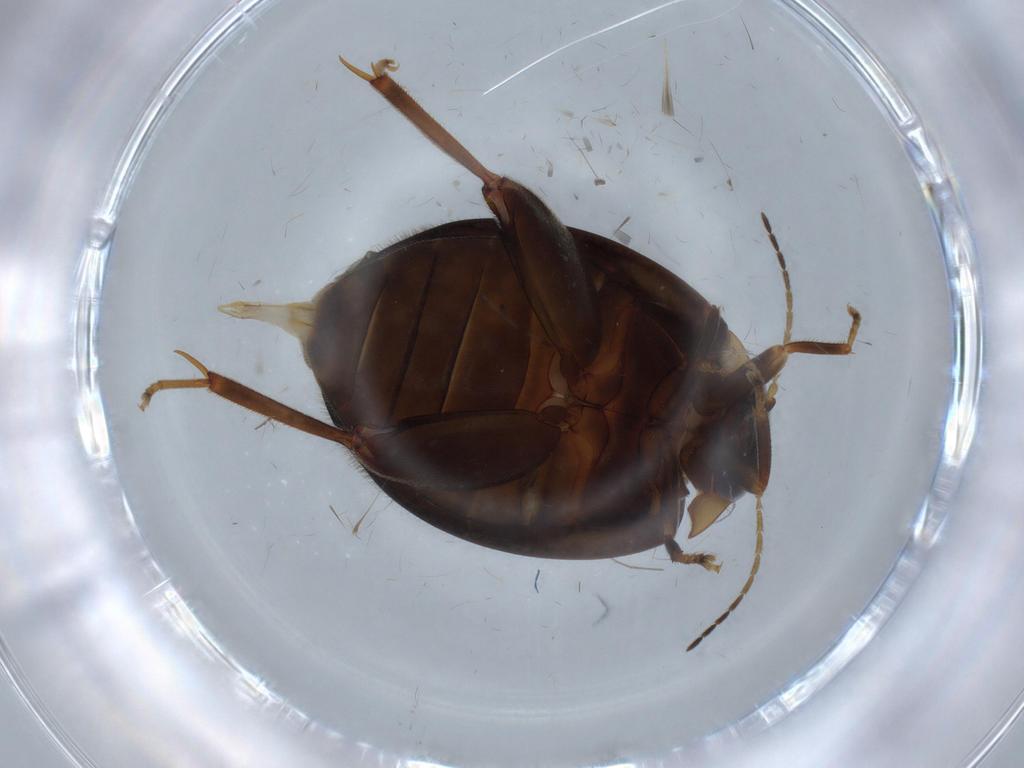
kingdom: Animalia
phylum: Arthropoda
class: Insecta
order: Coleoptera
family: Scirtidae
